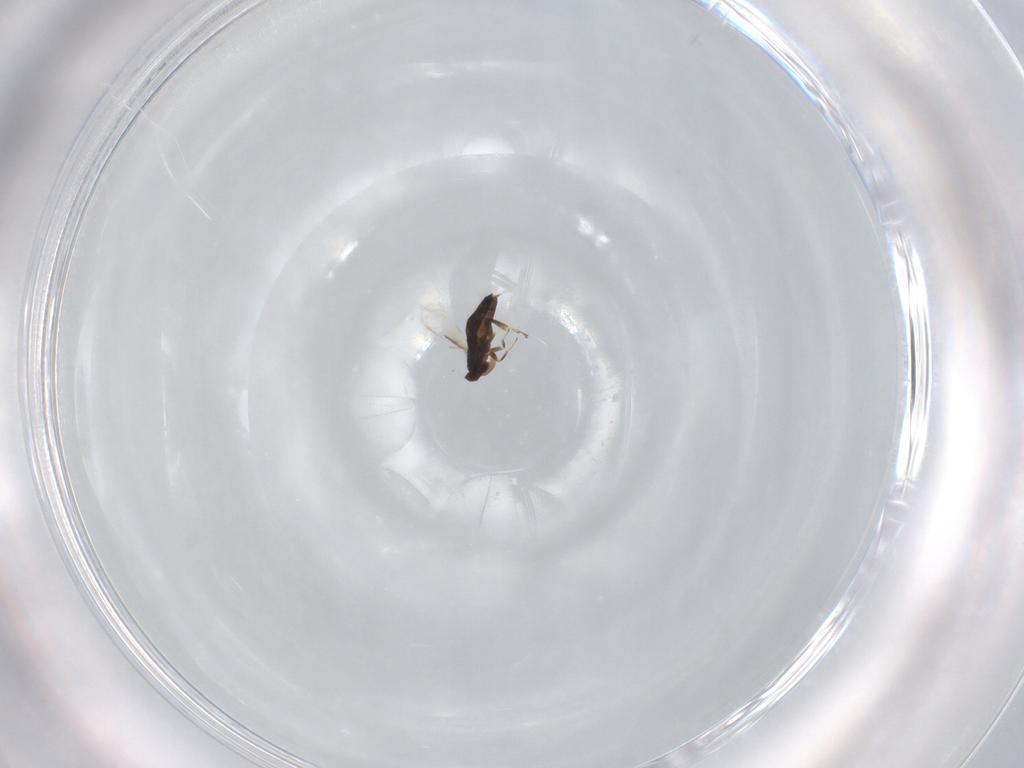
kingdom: Animalia
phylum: Arthropoda
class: Insecta
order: Hymenoptera
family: Signiphoridae
